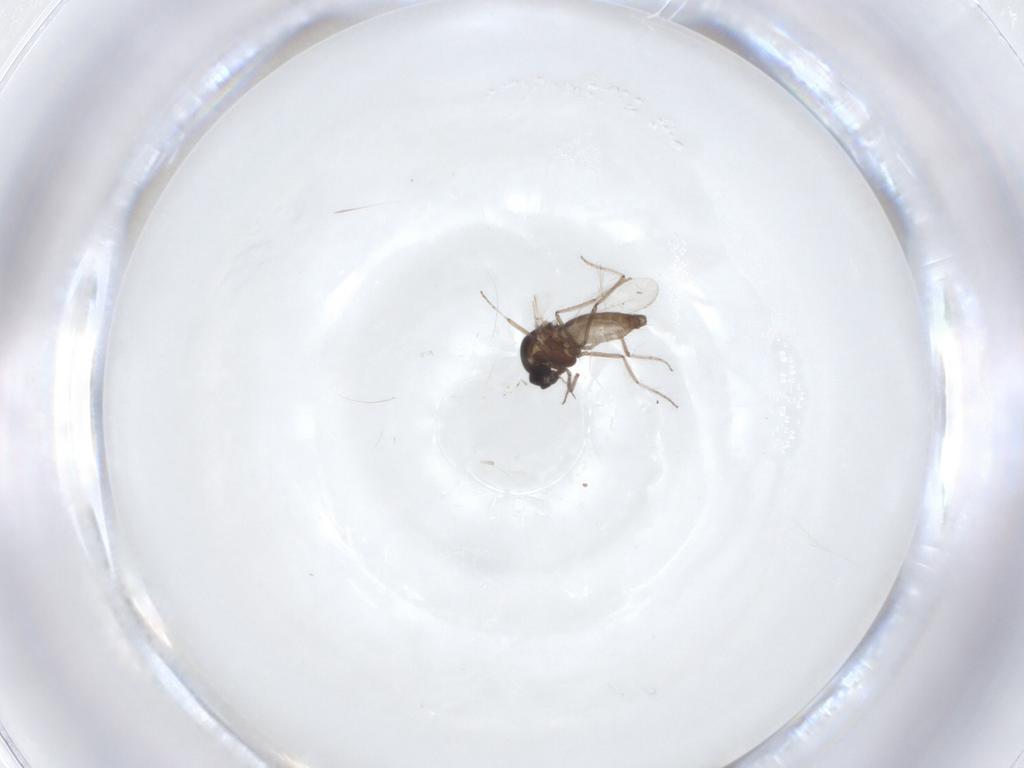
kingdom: Animalia
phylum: Arthropoda
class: Insecta
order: Diptera
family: Ceratopogonidae
